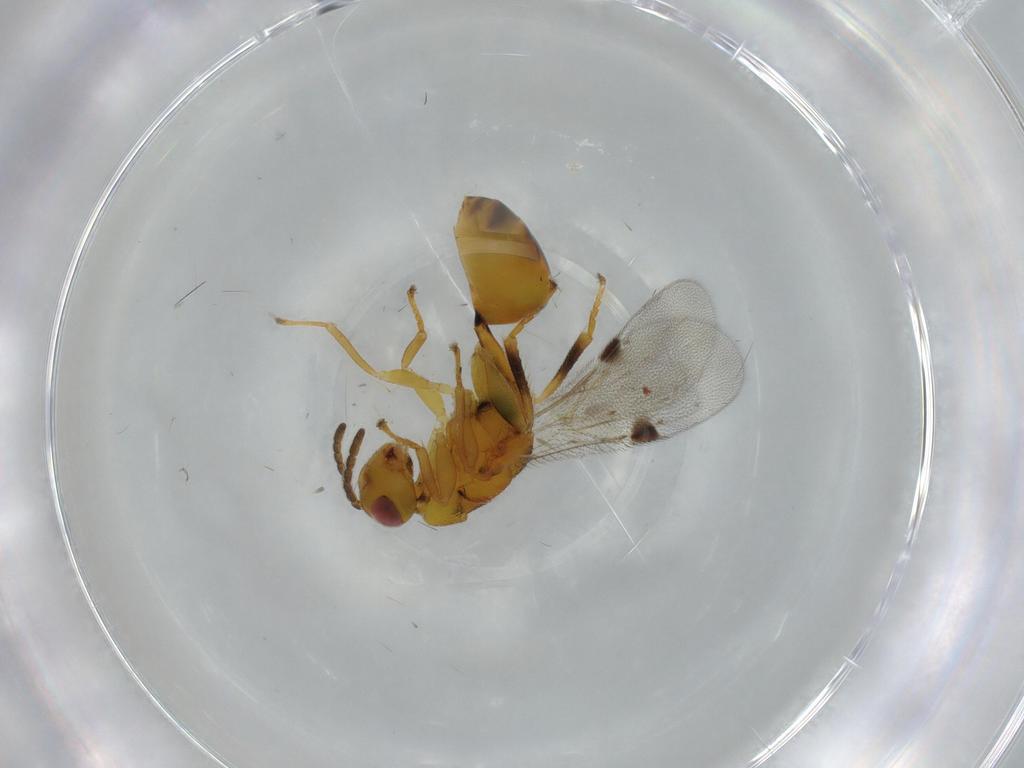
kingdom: Animalia
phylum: Arthropoda
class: Insecta
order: Hymenoptera
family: Formicidae
